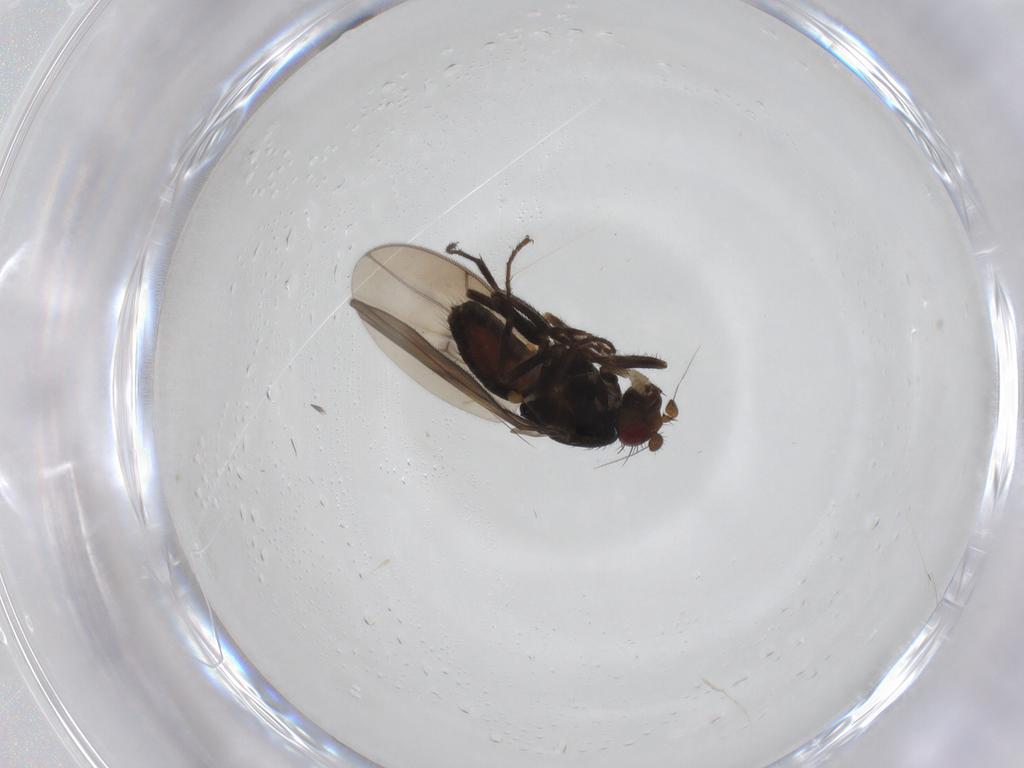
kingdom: Animalia
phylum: Arthropoda
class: Insecta
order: Diptera
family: Sphaeroceridae
